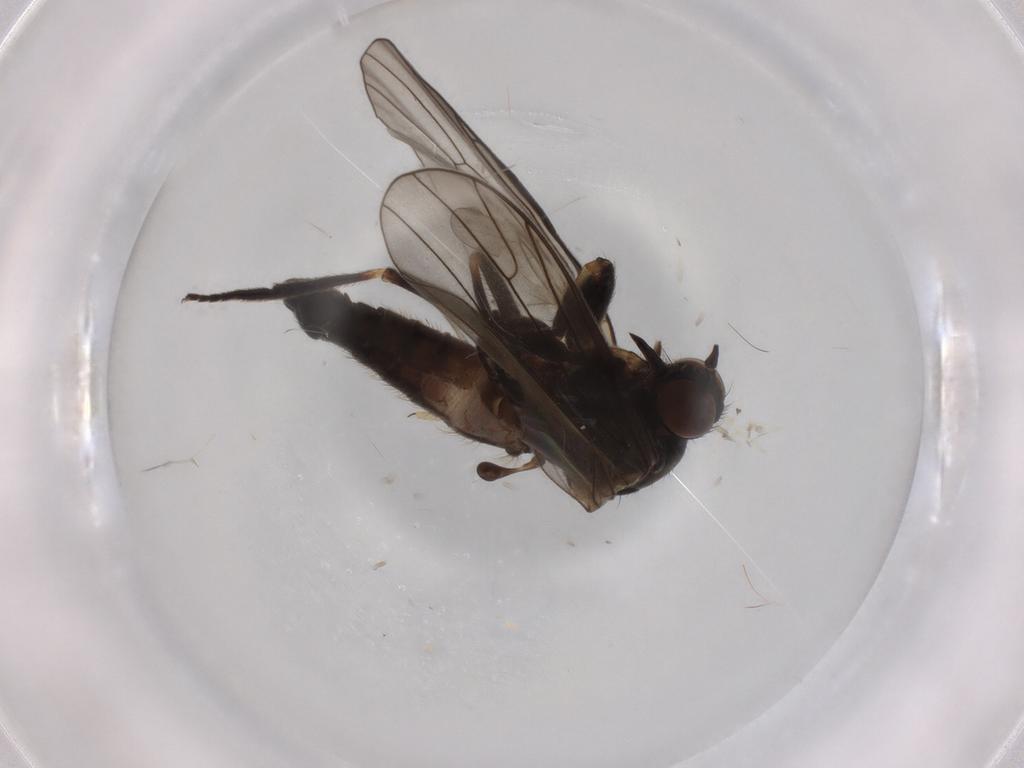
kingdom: Animalia
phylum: Arthropoda
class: Insecta
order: Diptera
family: Empididae
